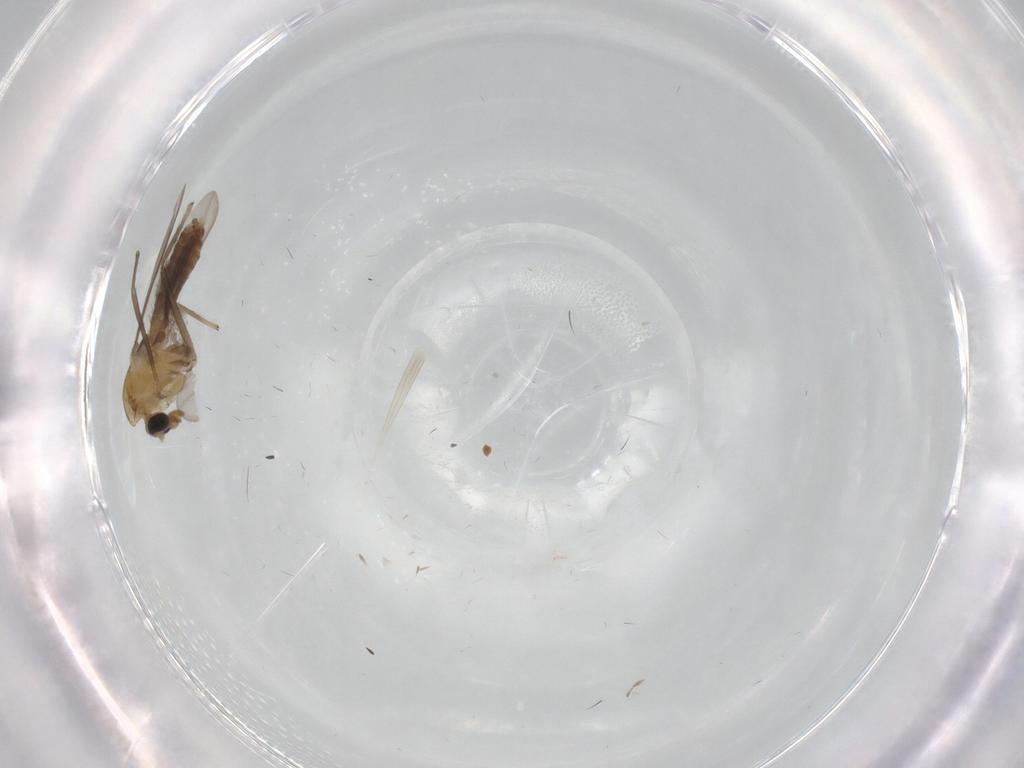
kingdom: Animalia
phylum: Arthropoda
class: Insecta
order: Diptera
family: Chironomidae
